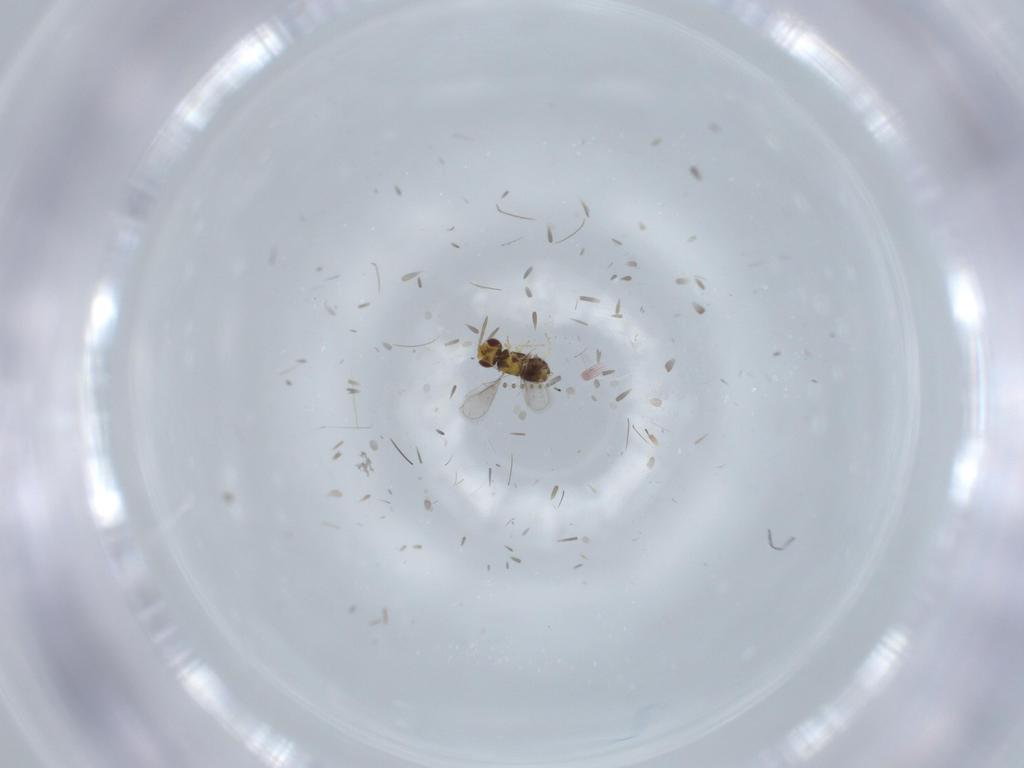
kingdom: Animalia
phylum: Arthropoda
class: Insecta
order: Hymenoptera
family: Aphelinidae
